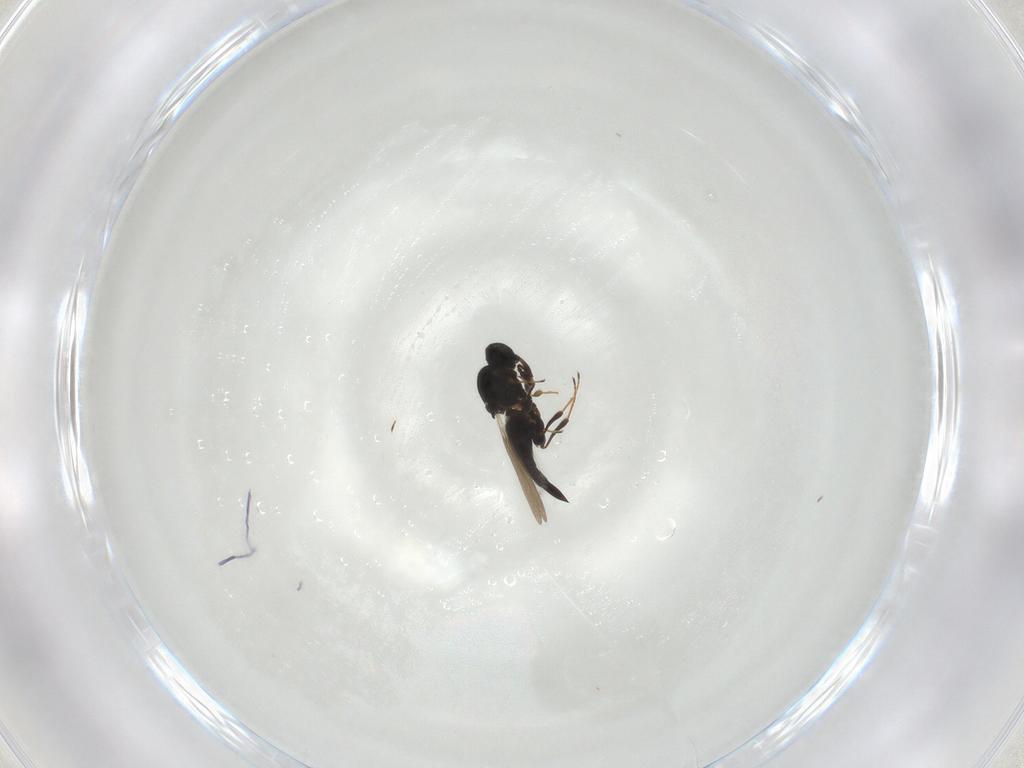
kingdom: Animalia
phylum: Arthropoda
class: Insecta
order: Hymenoptera
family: Platygastridae
